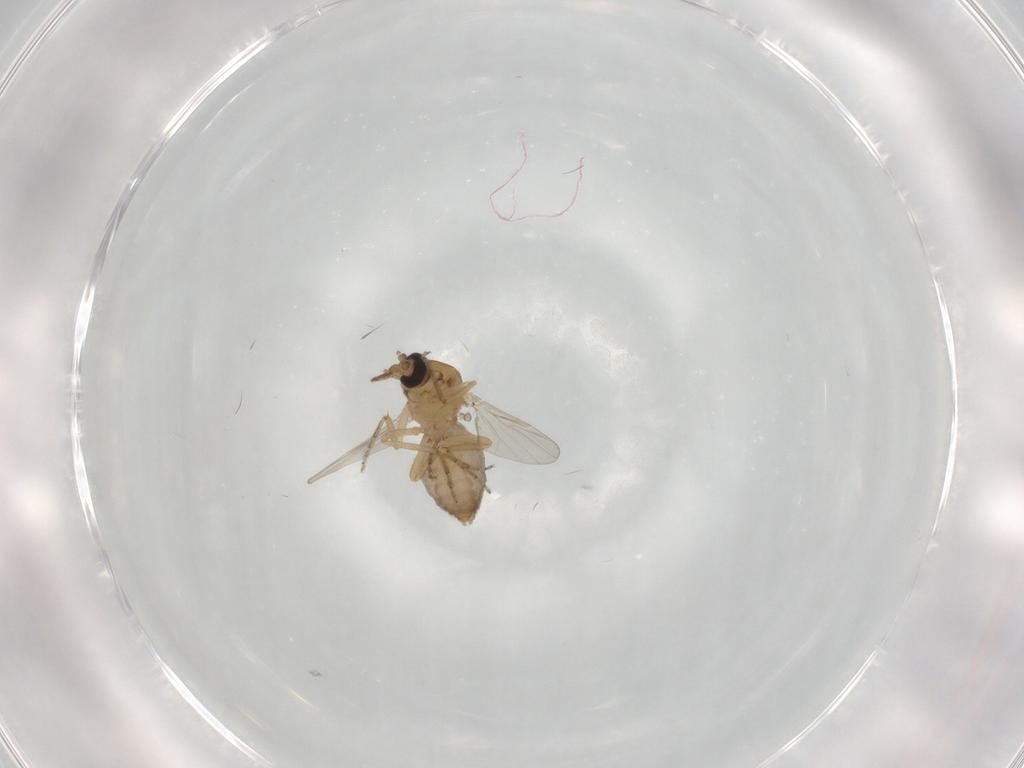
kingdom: Animalia
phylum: Arthropoda
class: Insecta
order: Diptera
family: Ceratopogonidae
